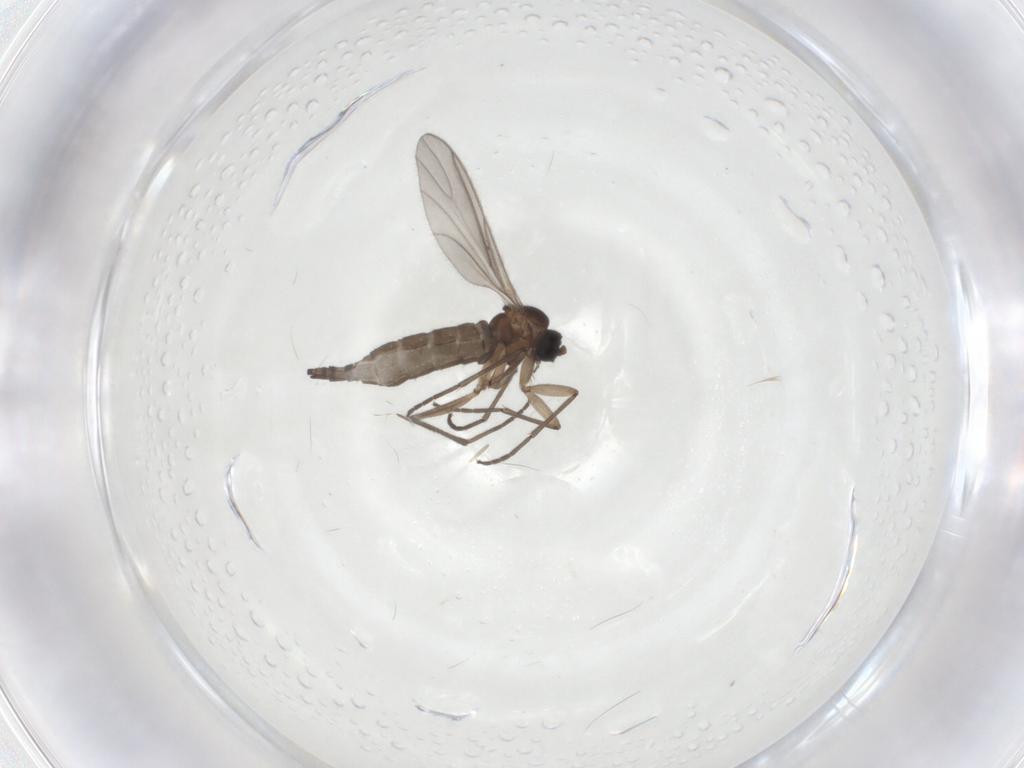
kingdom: Animalia
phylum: Arthropoda
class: Insecta
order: Diptera
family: Sciaridae
